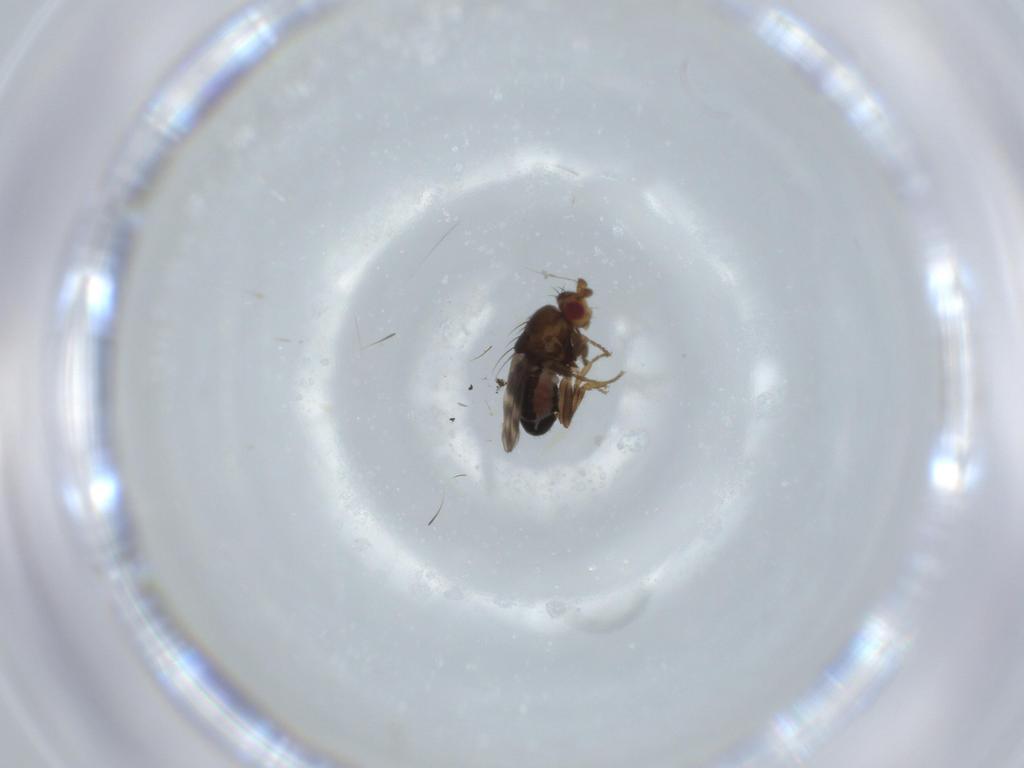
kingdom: Animalia
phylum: Arthropoda
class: Insecta
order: Diptera
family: Sphaeroceridae
